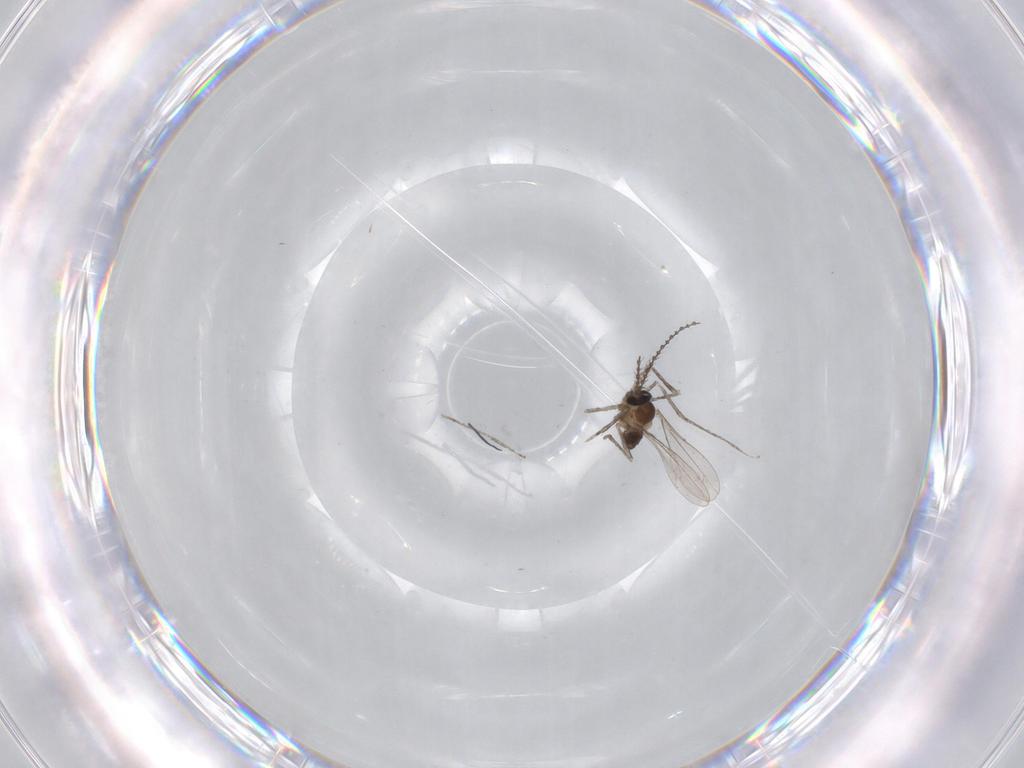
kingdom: Animalia
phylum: Arthropoda
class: Insecta
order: Diptera
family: Cecidomyiidae
